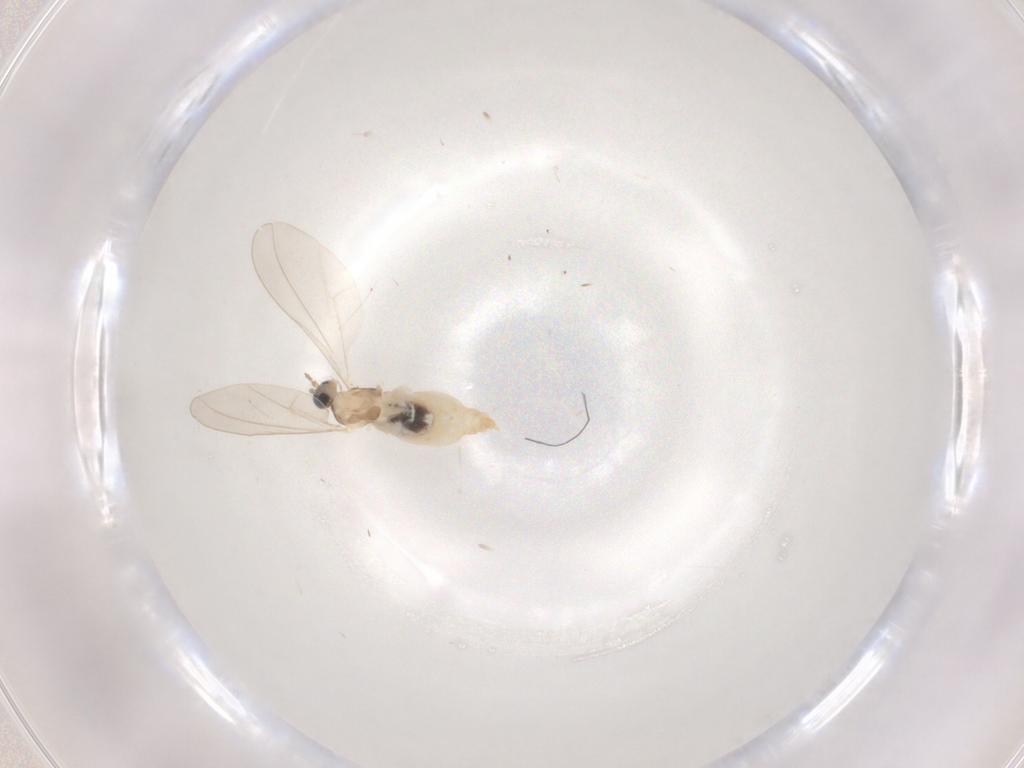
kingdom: Animalia
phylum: Arthropoda
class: Insecta
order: Diptera
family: Cecidomyiidae
